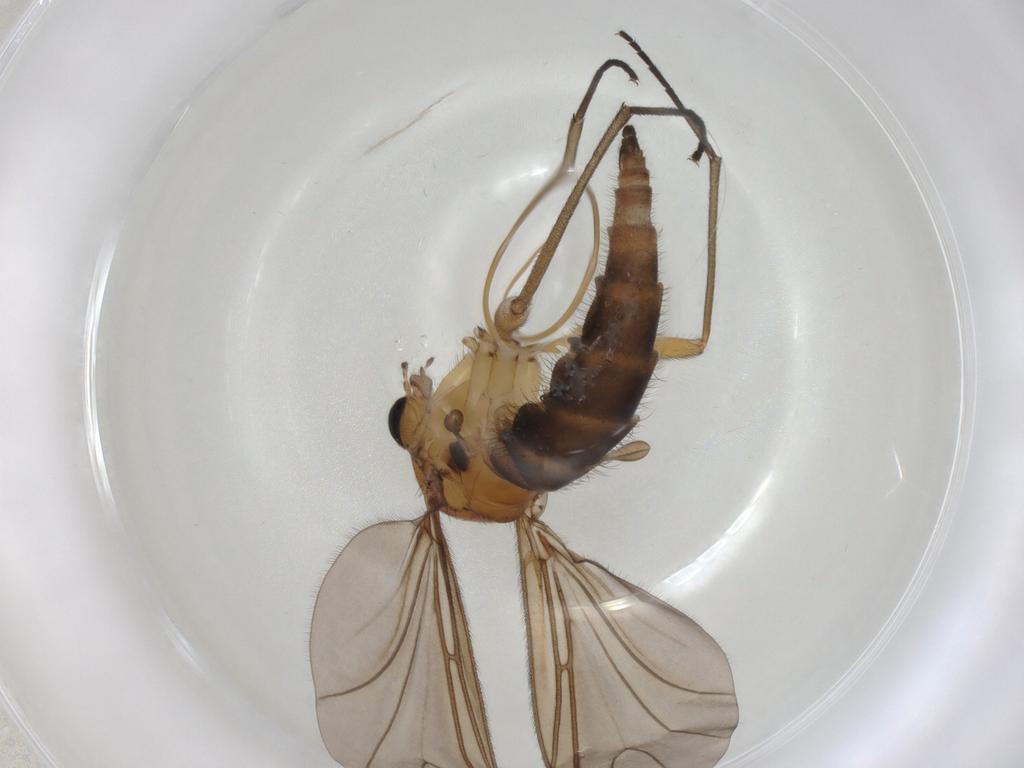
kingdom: Animalia
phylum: Arthropoda
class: Insecta
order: Diptera
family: Sciaridae
